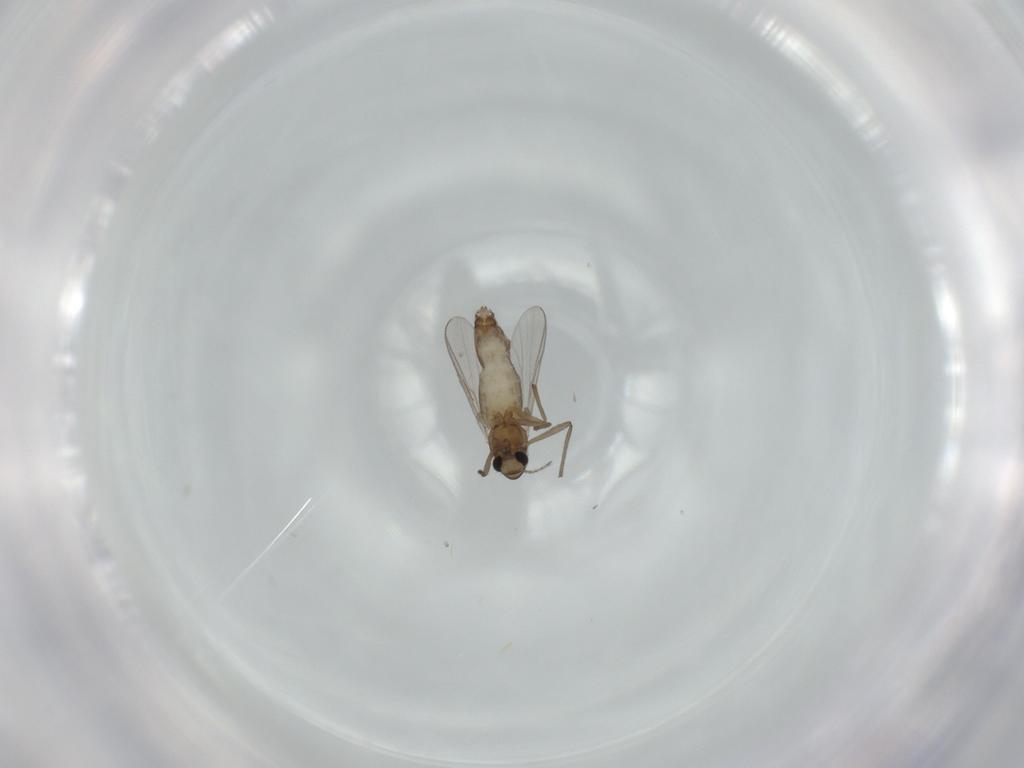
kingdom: Animalia
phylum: Arthropoda
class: Insecta
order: Diptera
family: Chironomidae
